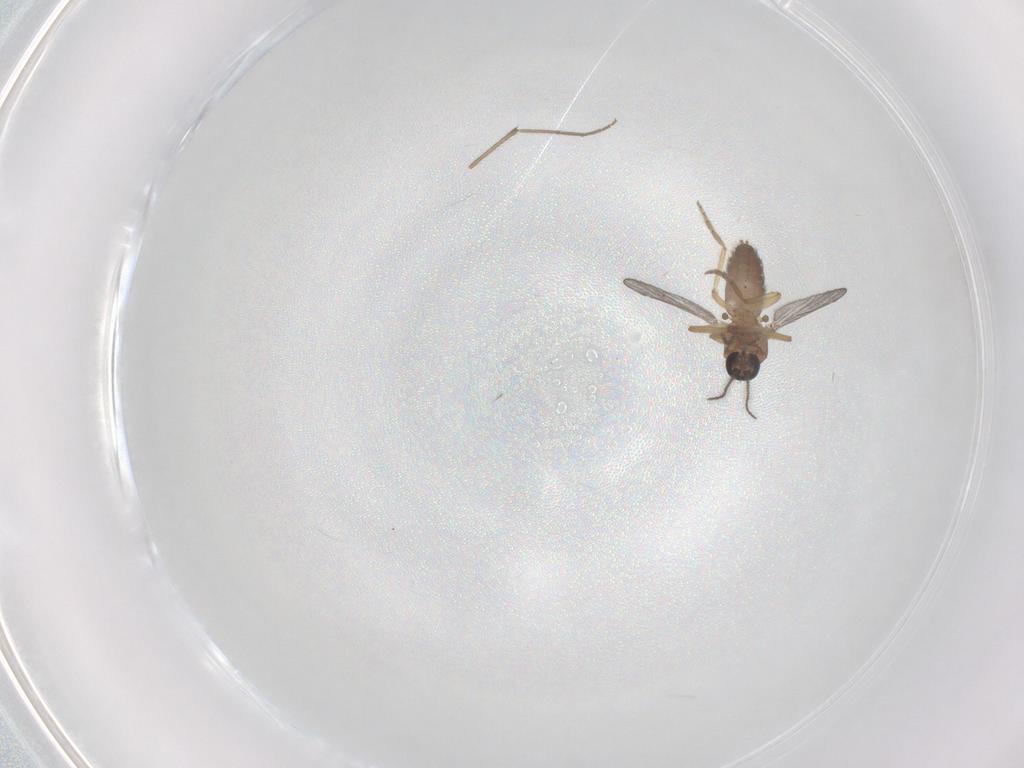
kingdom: Animalia
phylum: Arthropoda
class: Insecta
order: Diptera
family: Chironomidae
